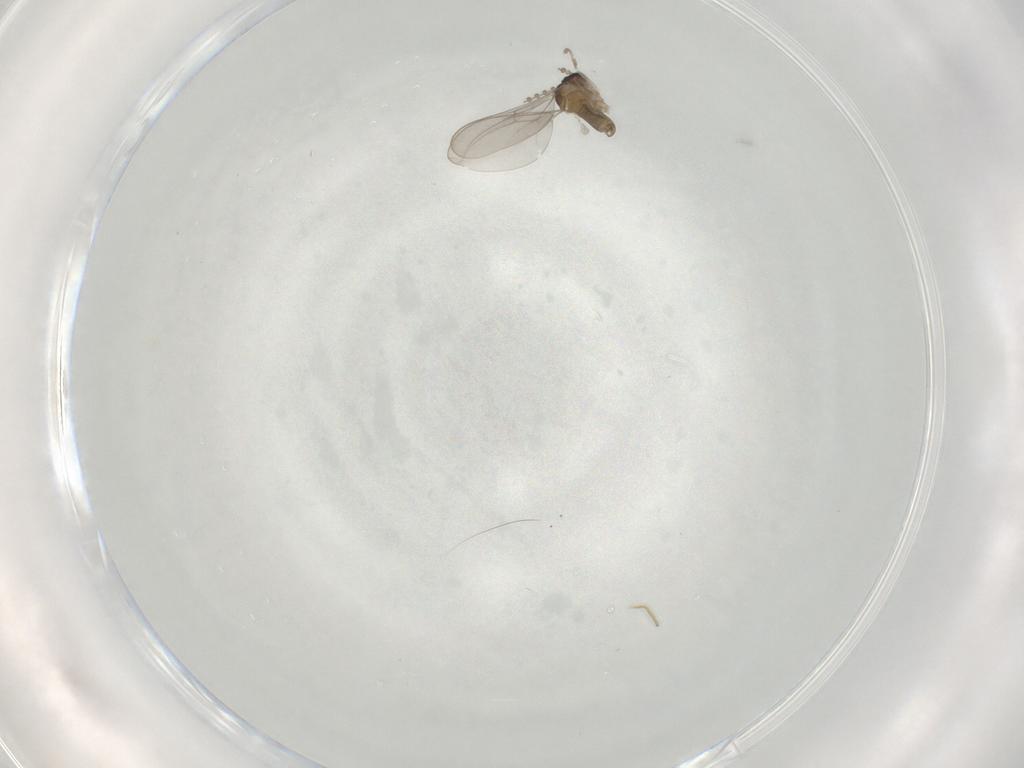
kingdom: Animalia
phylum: Arthropoda
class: Insecta
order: Diptera
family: Cecidomyiidae
